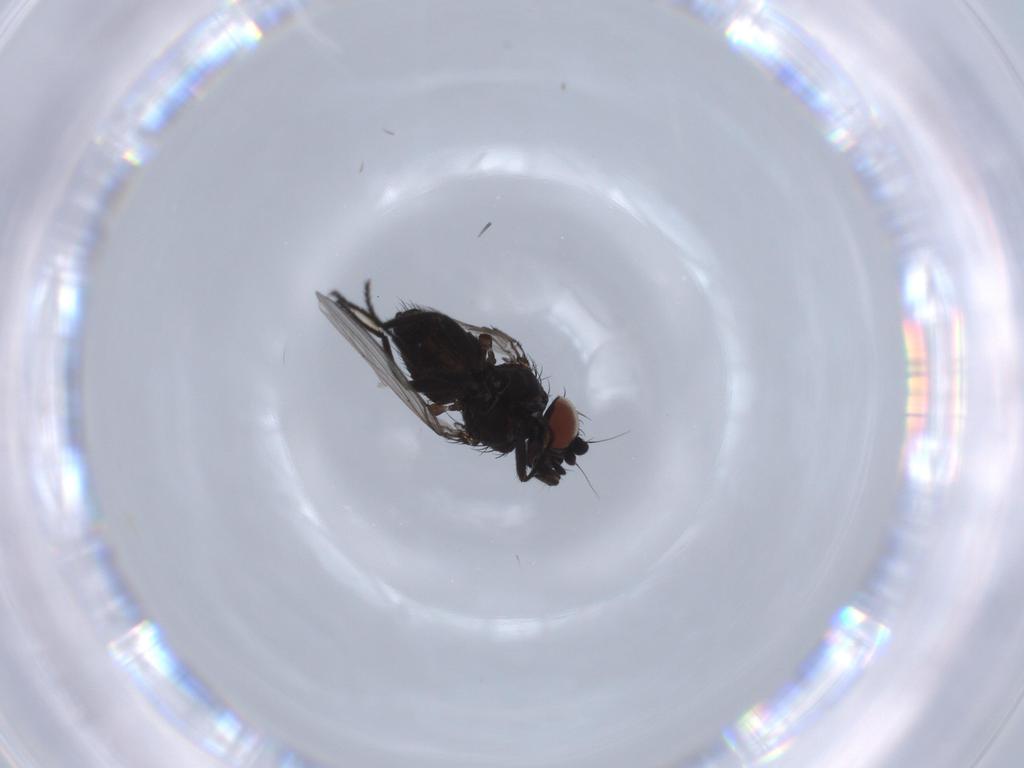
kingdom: Animalia
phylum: Arthropoda
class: Insecta
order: Diptera
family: Milichiidae
